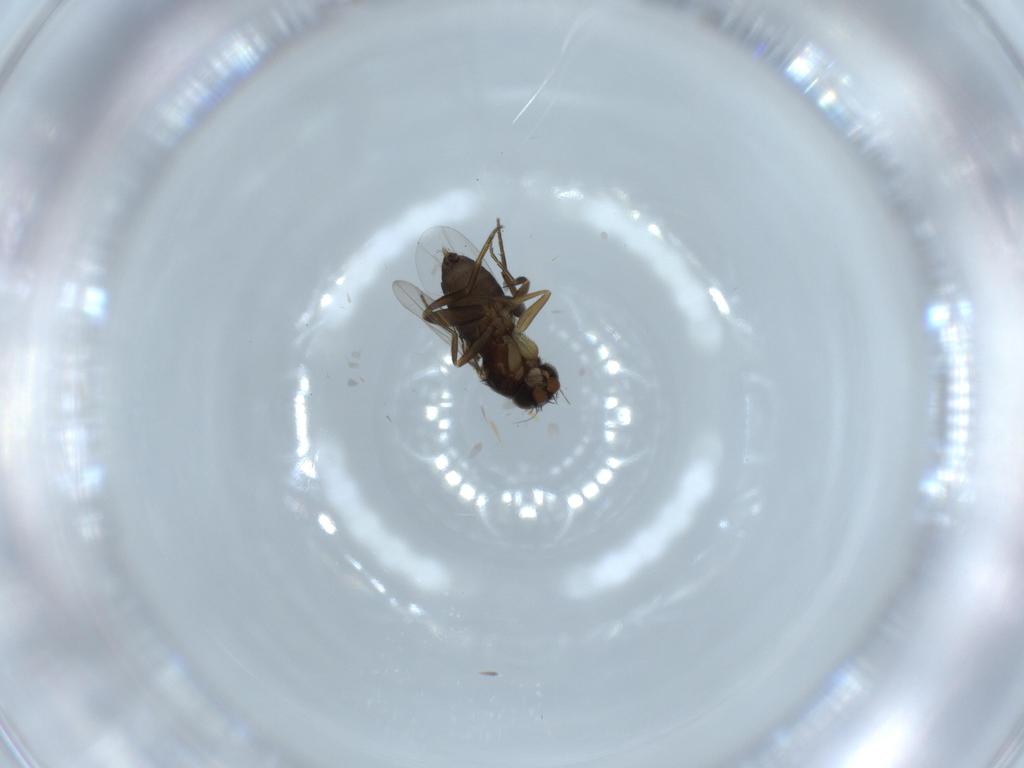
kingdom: Animalia
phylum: Arthropoda
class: Insecta
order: Diptera
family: Phoridae
